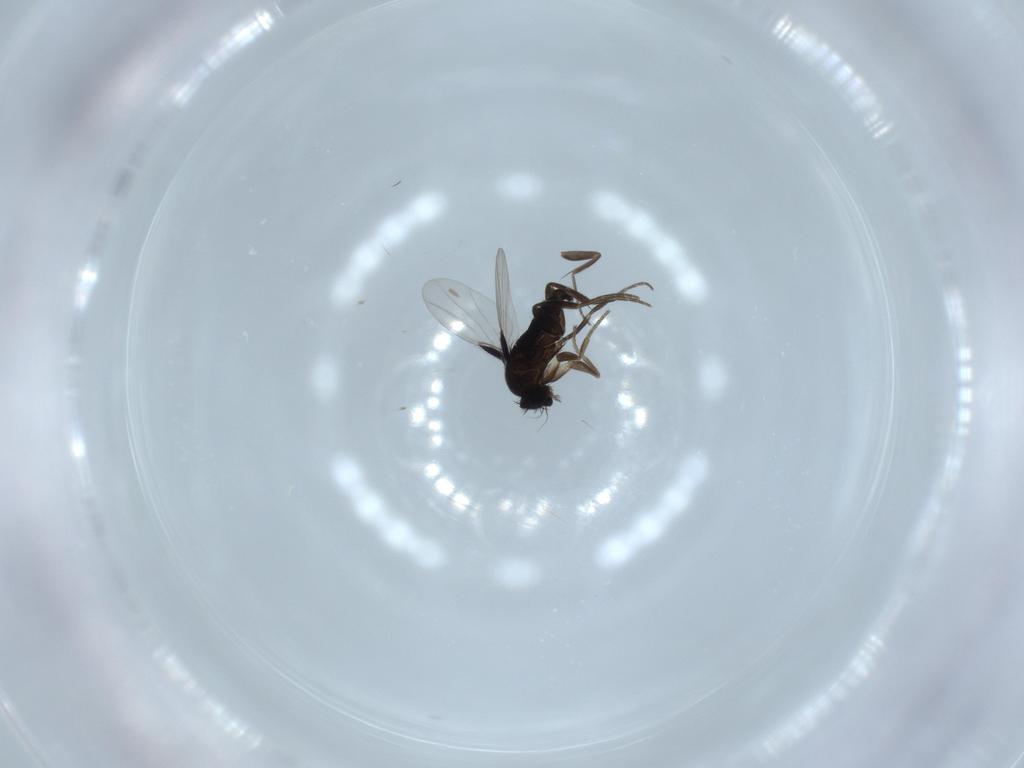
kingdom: Animalia
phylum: Arthropoda
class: Insecta
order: Diptera
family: Phoridae
